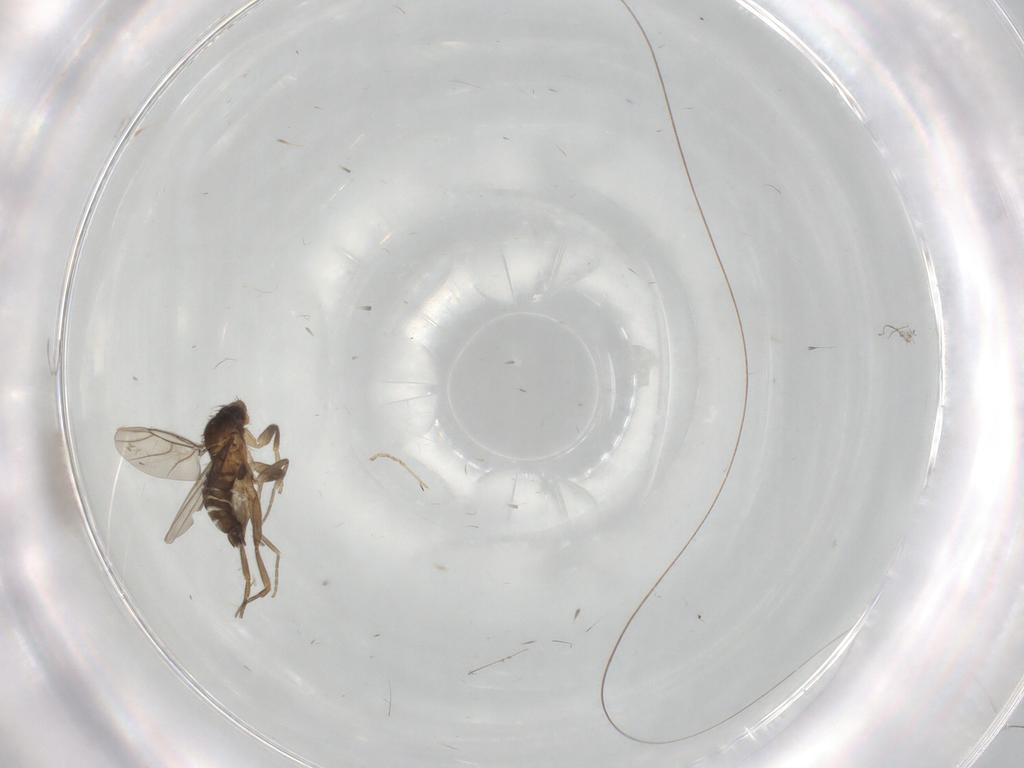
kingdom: Animalia
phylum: Arthropoda
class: Insecta
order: Diptera
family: Phoridae
